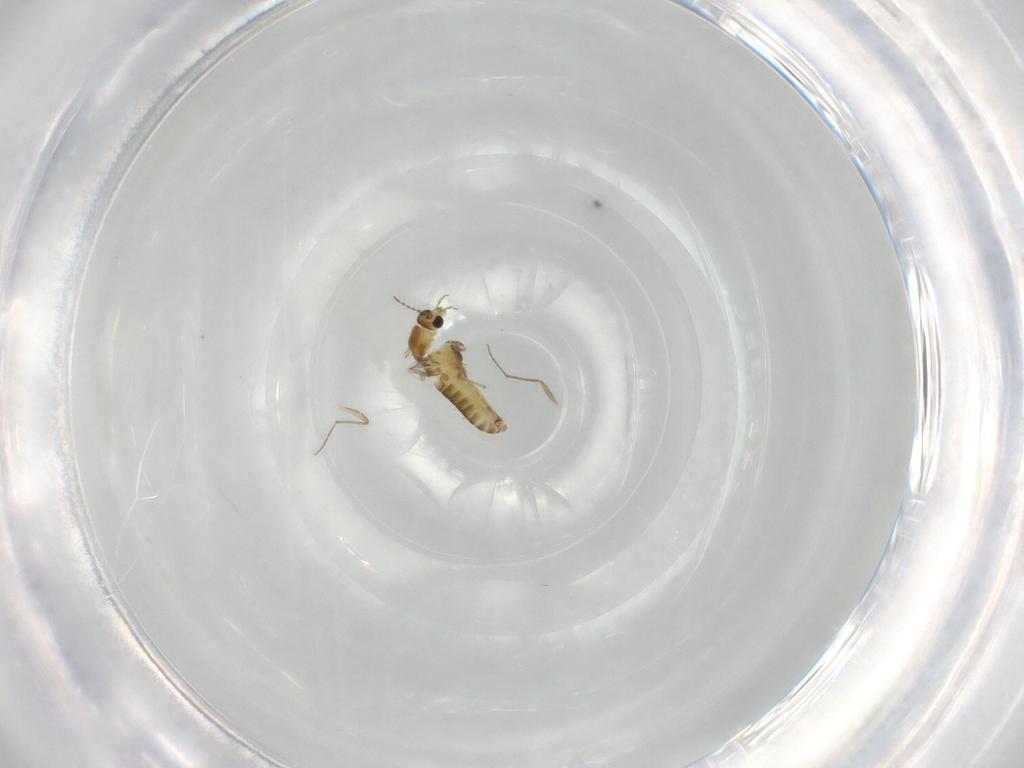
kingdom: Animalia
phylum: Arthropoda
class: Insecta
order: Diptera
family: Chironomidae
